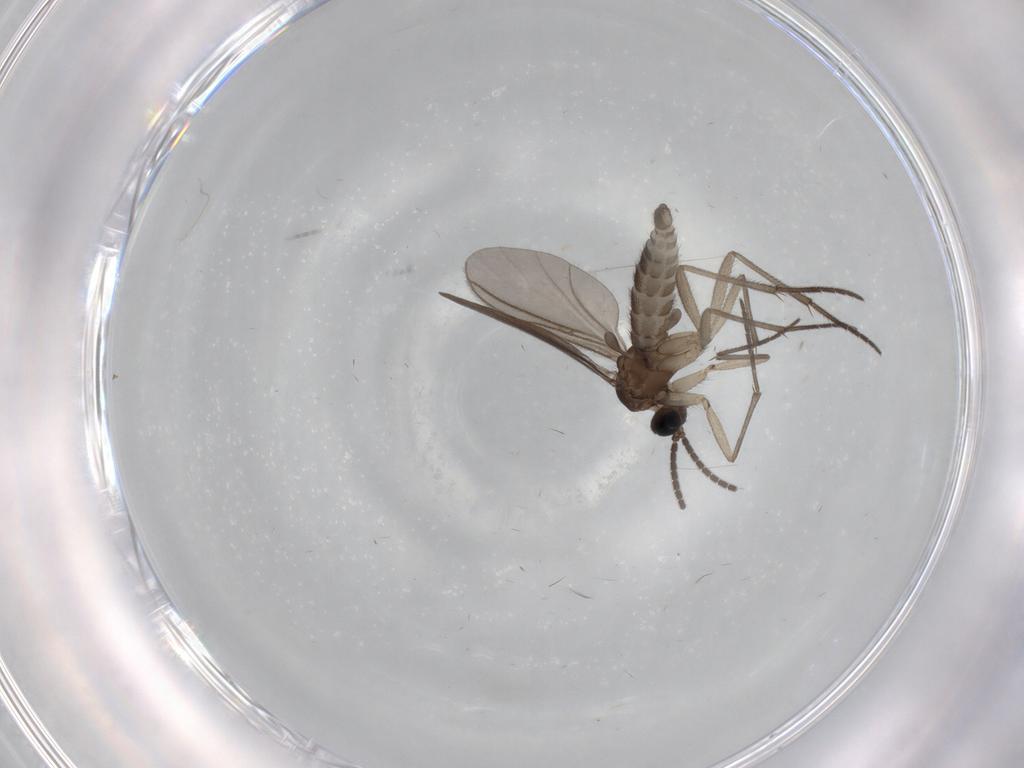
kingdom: Animalia
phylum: Arthropoda
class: Insecta
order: Diptera
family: Sciaridae
